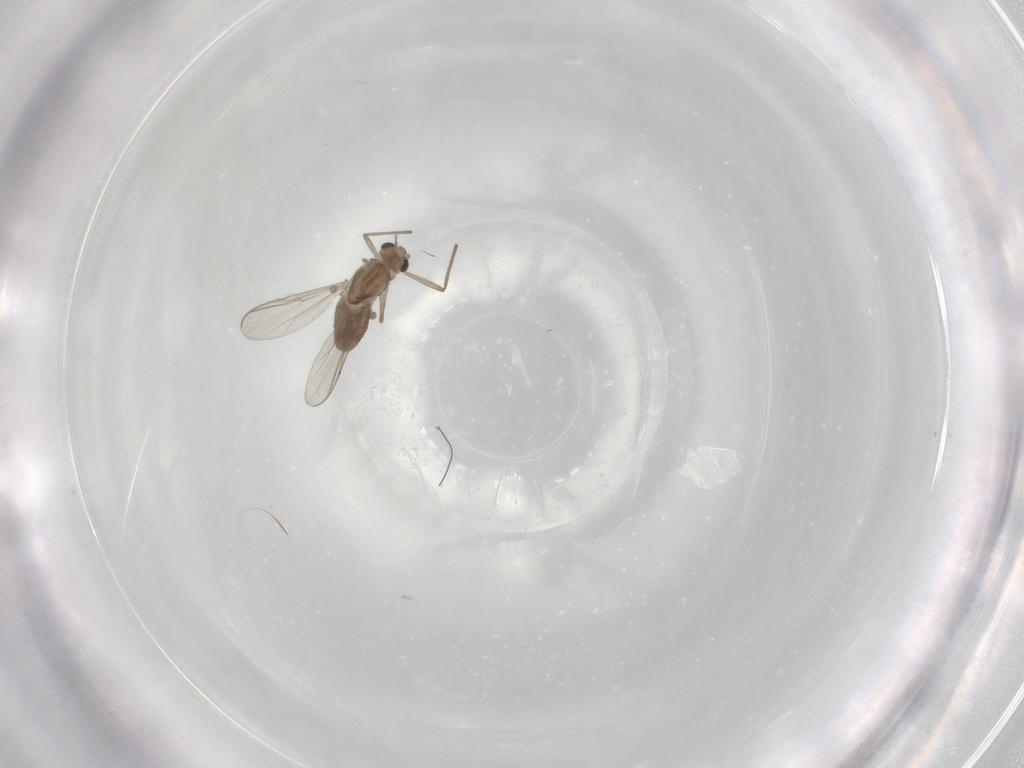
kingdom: Animalia
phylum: Arthropoda
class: Insecta
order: Diptera
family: Chironomidae
